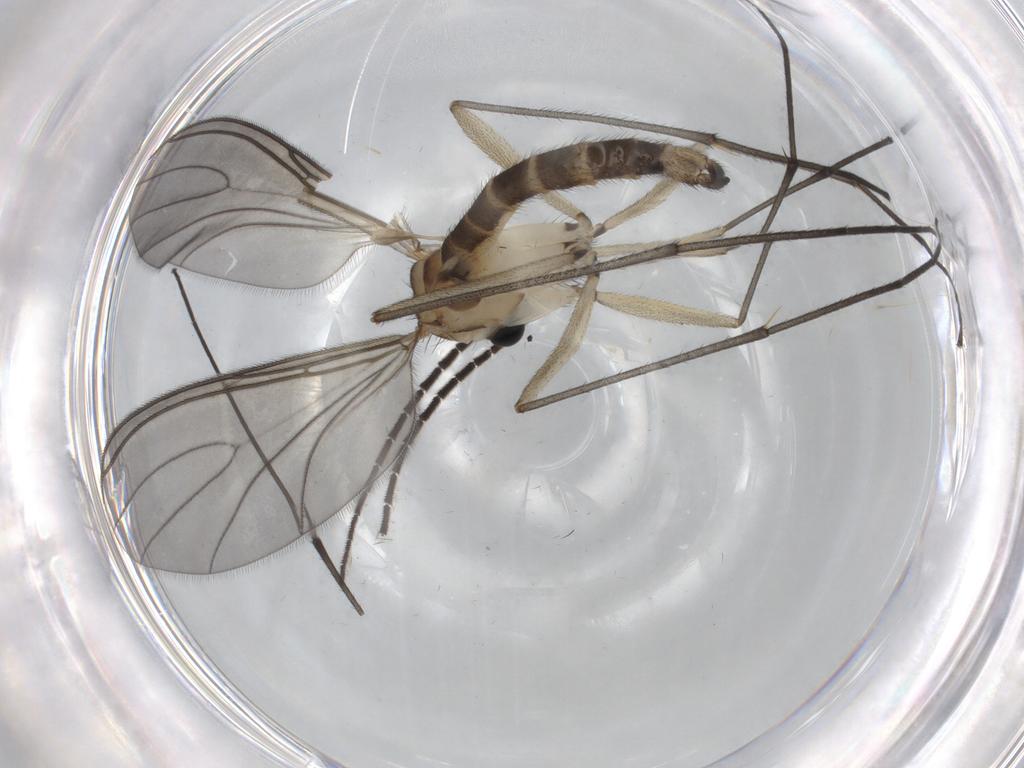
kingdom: Animalia
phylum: Arthropoda
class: Insecta
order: Diptera
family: Sciaridae
